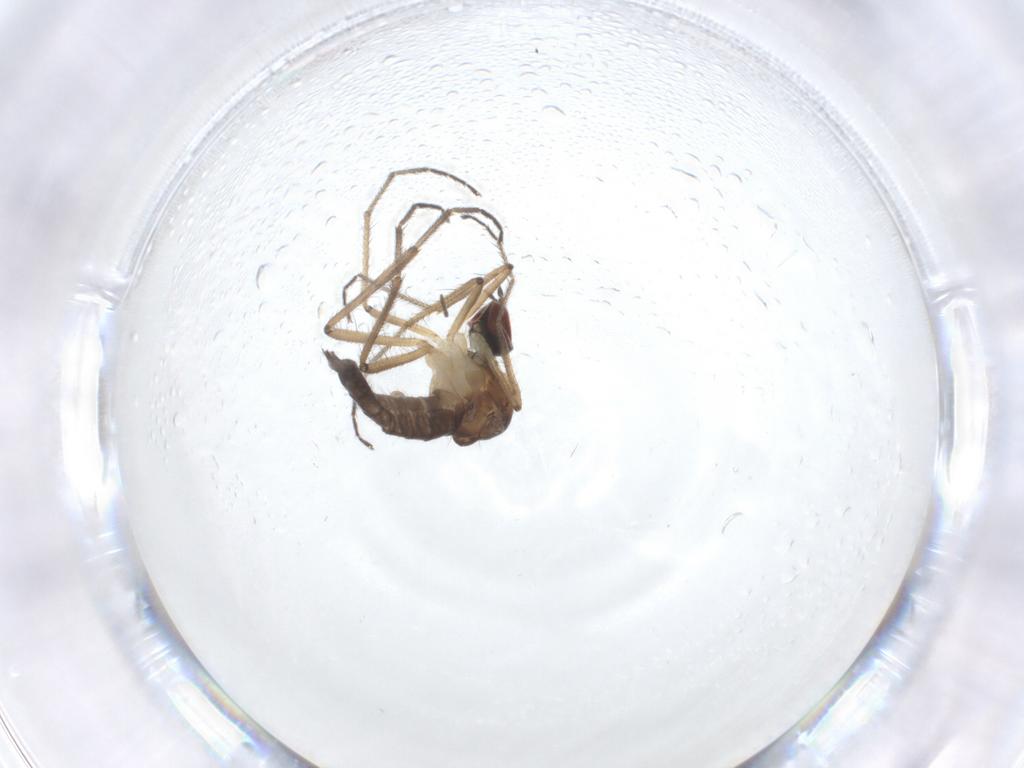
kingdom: Animalia
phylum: Arthropoda
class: Insecta
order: Diptera
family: Hybotidae
